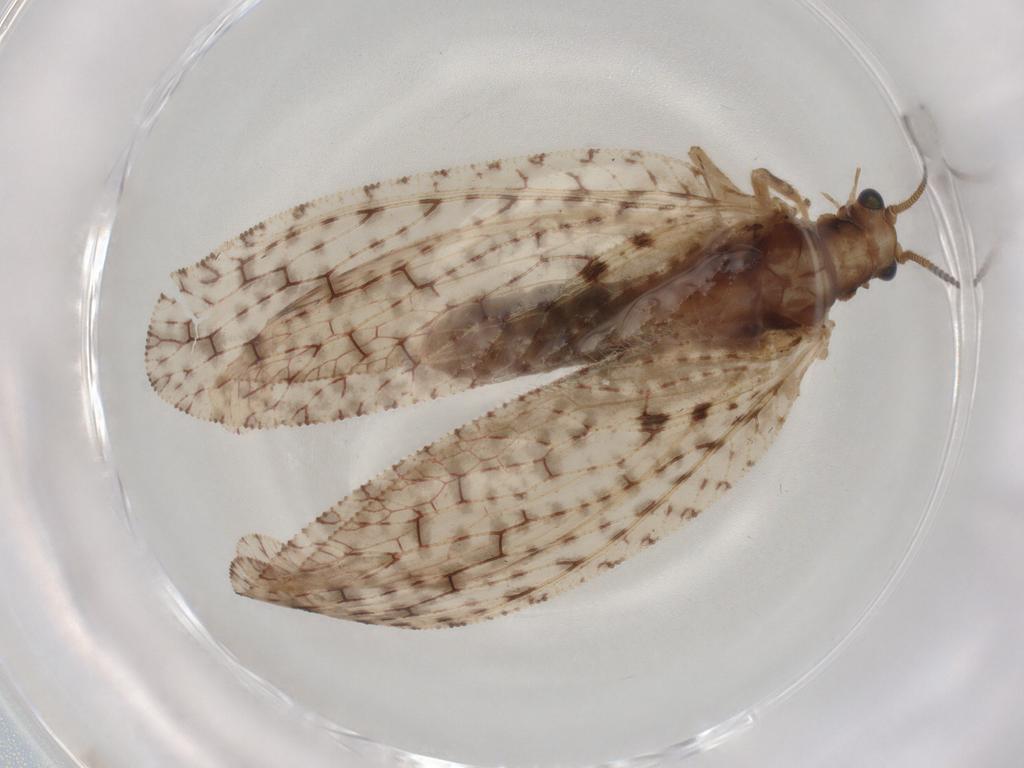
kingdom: Animalia
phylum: Arthropoda
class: Insecta
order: Neuroptera
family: Hemerobiidae
